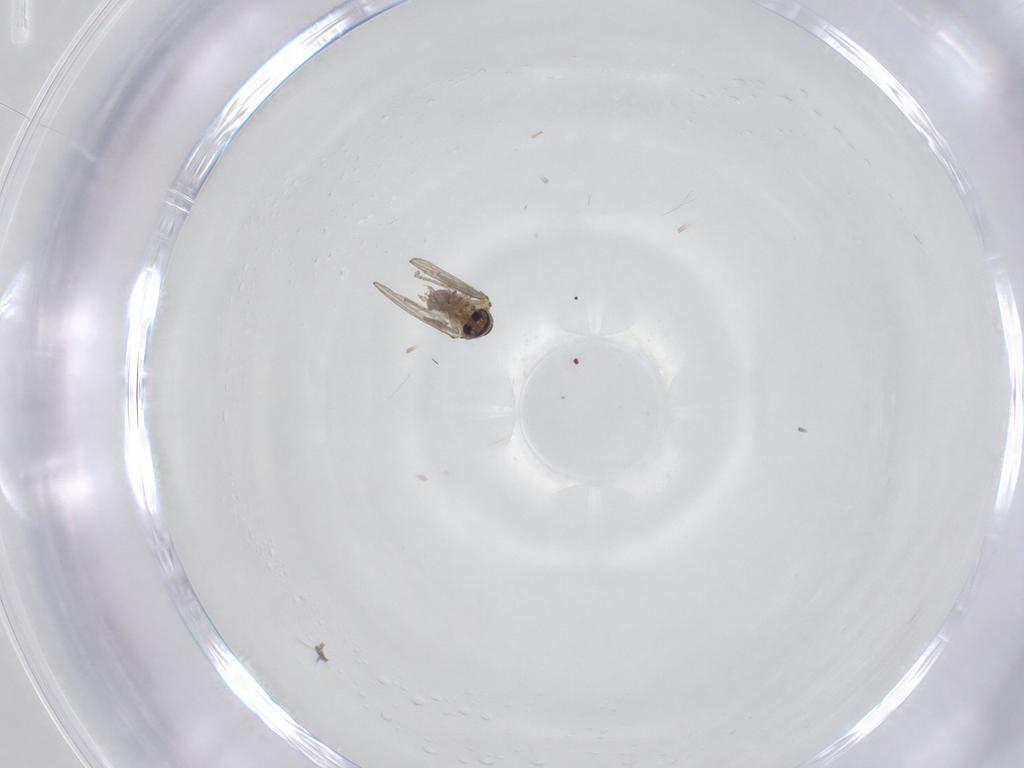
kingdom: Animalia
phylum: Arthropoda
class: Insecta
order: Diptera
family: Psychodidae
